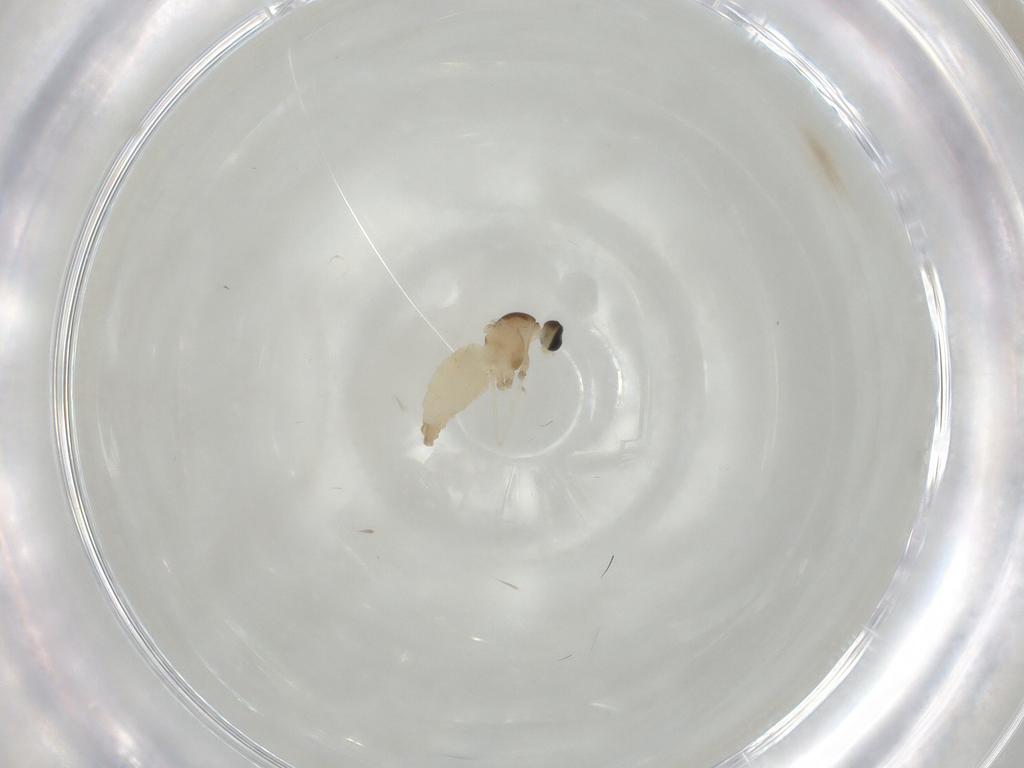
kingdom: Animalia
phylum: Arthropoda
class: Insecta
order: Diptera
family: Cecidomyiidae
